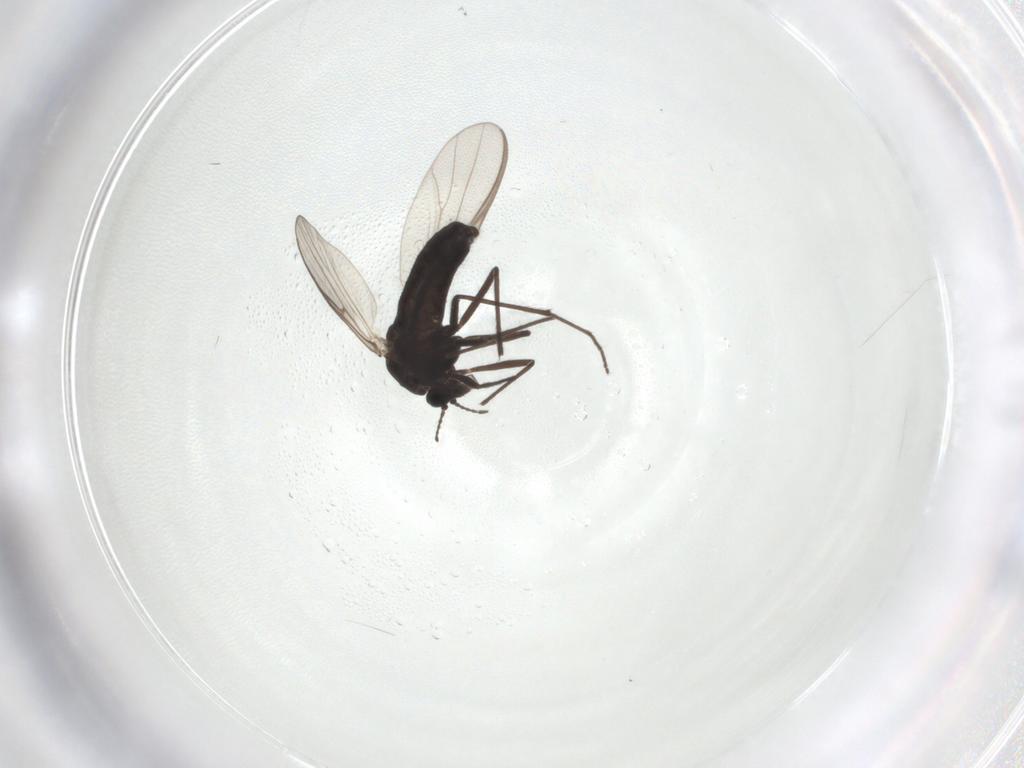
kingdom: Animalia
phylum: Arthropoda
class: Insecta
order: Diptera
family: Chironomidae
